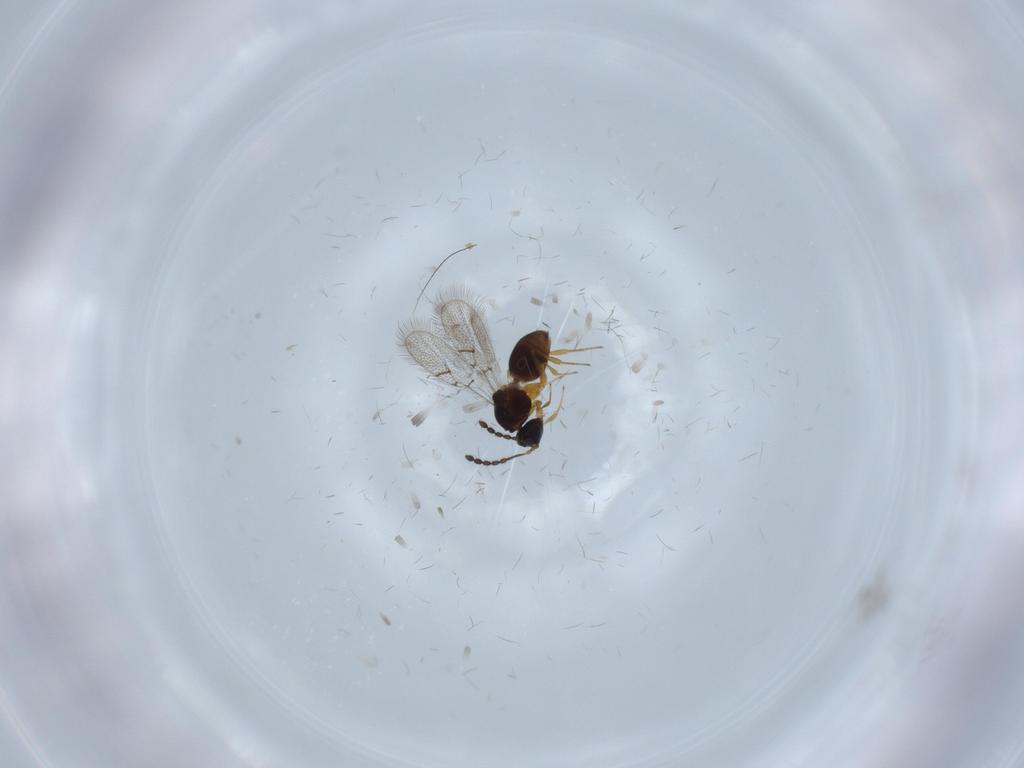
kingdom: Animalia
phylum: Arthropoda
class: Insecta
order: Hymenoptera
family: Figitidae
